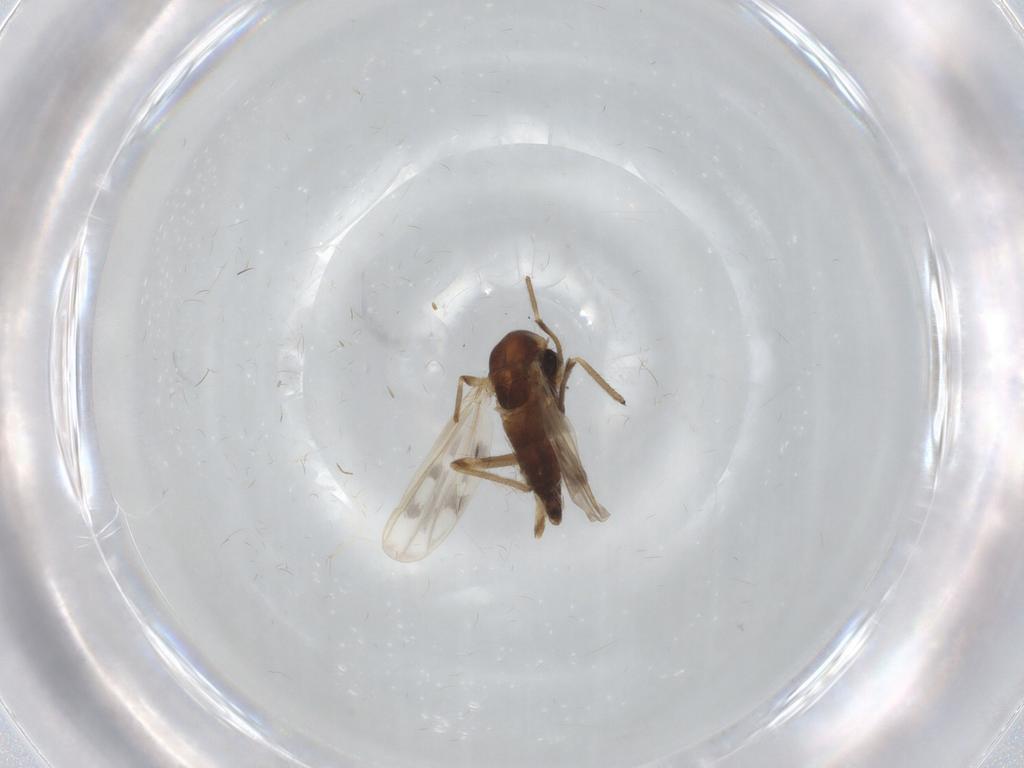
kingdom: Animalia
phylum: Arthropoda
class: Insecta
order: Diptera
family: Chironomidae
